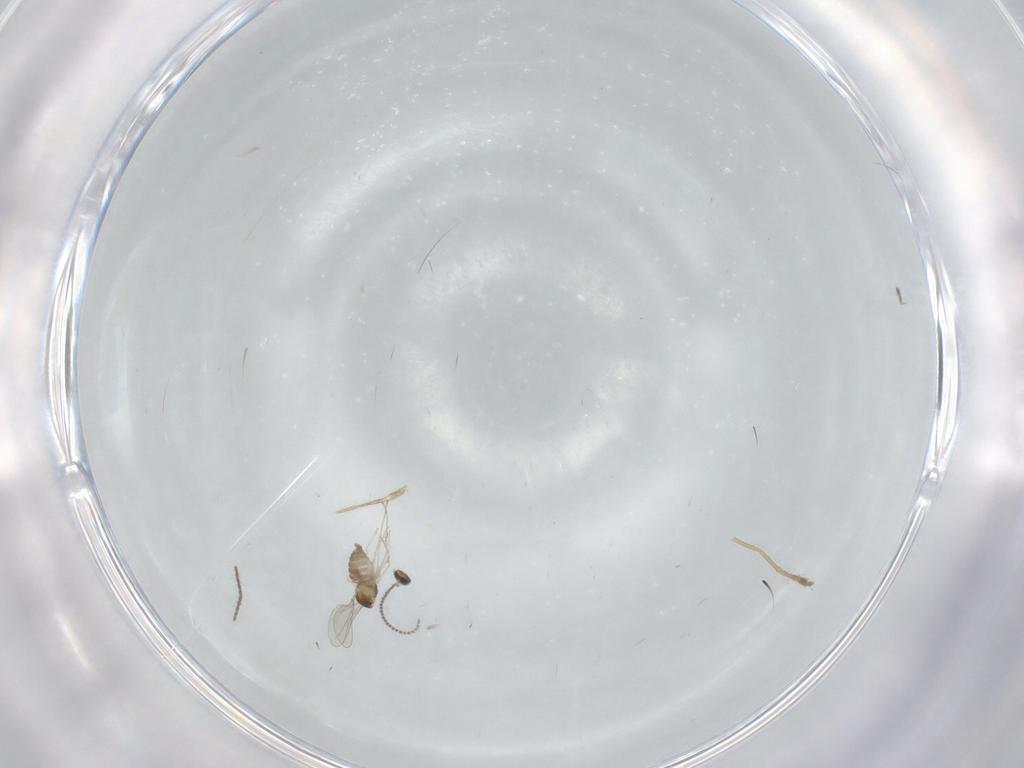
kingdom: Animalia
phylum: Arthropoda
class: Insecta
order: Diptera
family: Cecidomyiidae
